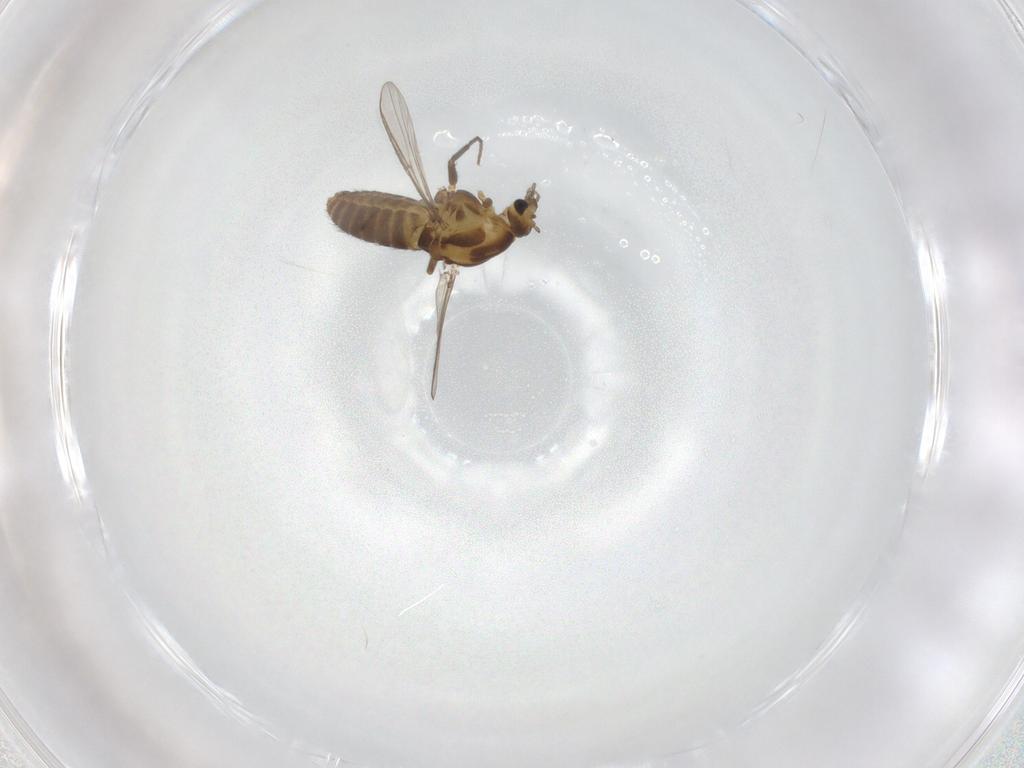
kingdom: Animalia
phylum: Arthropoda
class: Insecta
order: Diptera
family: Chironomidae
